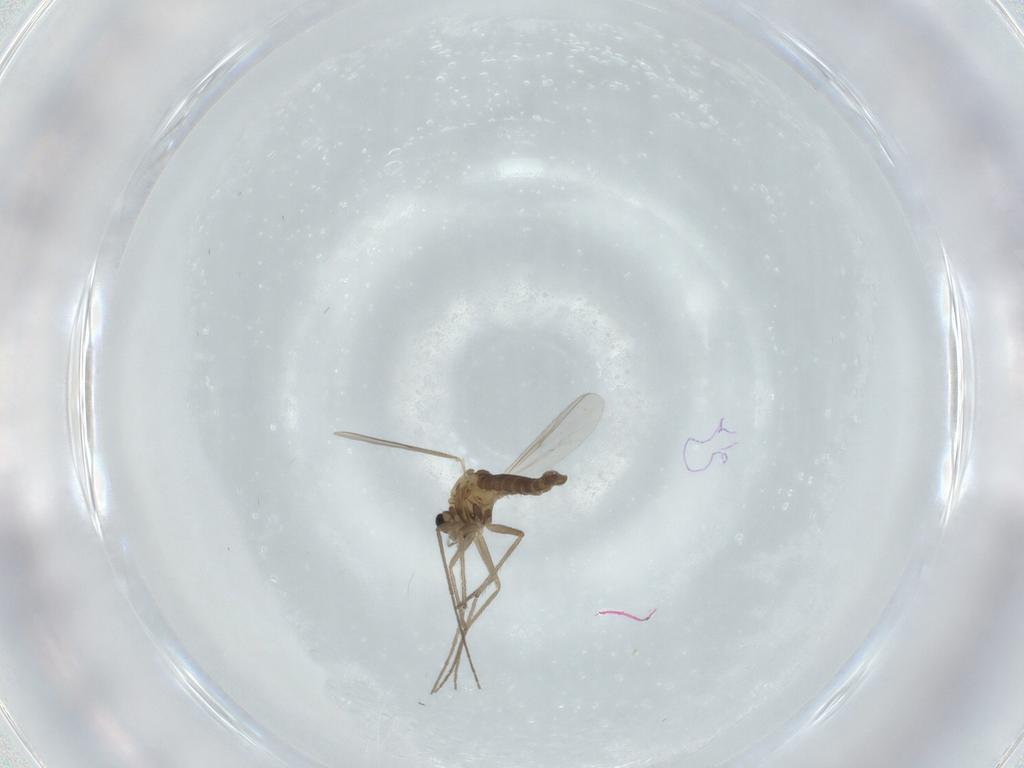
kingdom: Animalia
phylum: Arthropoda
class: Insecta
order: Diptera
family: Chironomidae
